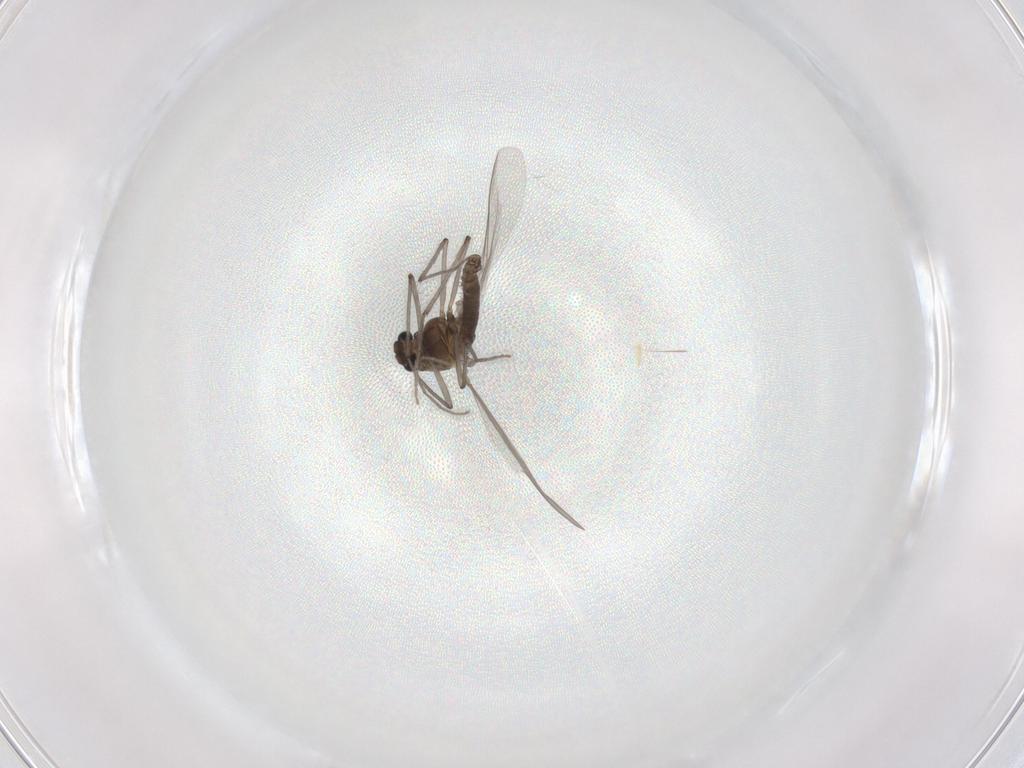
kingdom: Animalia
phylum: Arthropoda
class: Insecta
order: Diptera
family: Chironomidae
